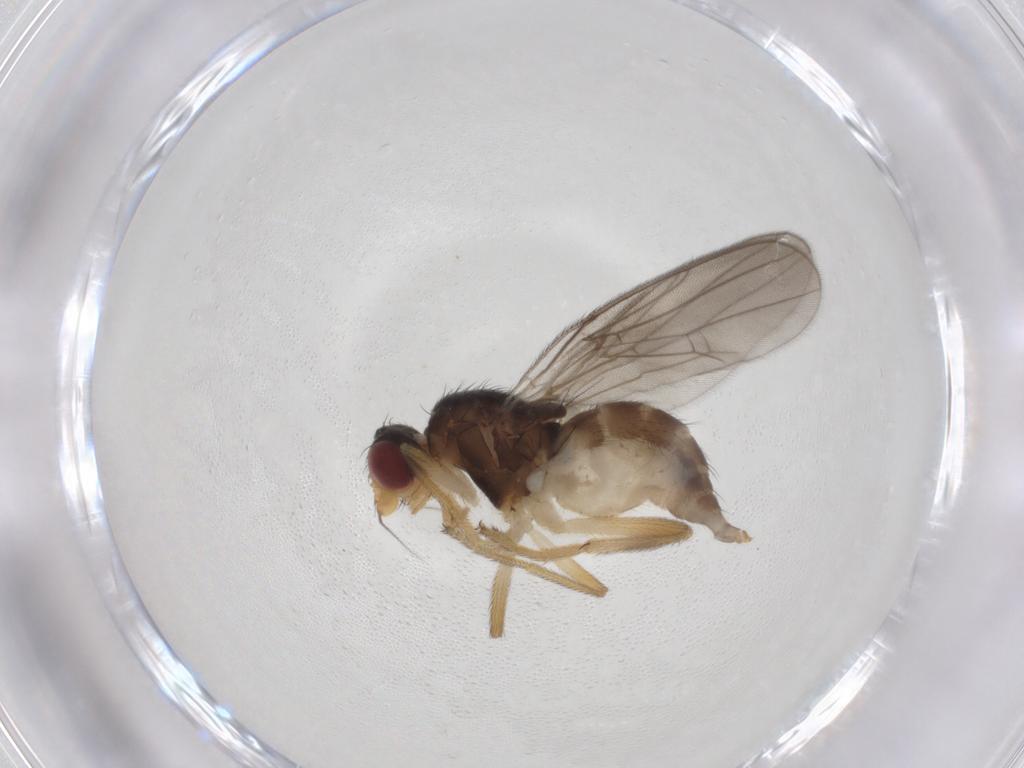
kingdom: Animalia
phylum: Arthropoda
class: Insecta
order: Diptera
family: Chloropidae
